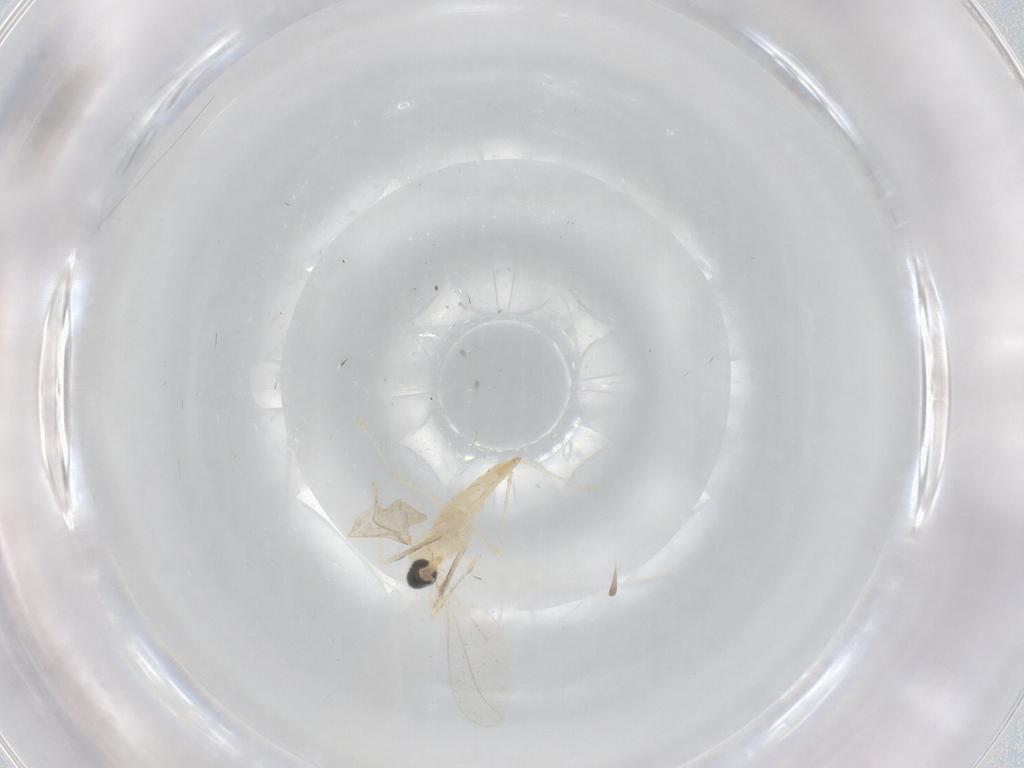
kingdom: Animalia
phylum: Arthropoda
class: Insecta
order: Diptera
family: Cecidomyiidae
